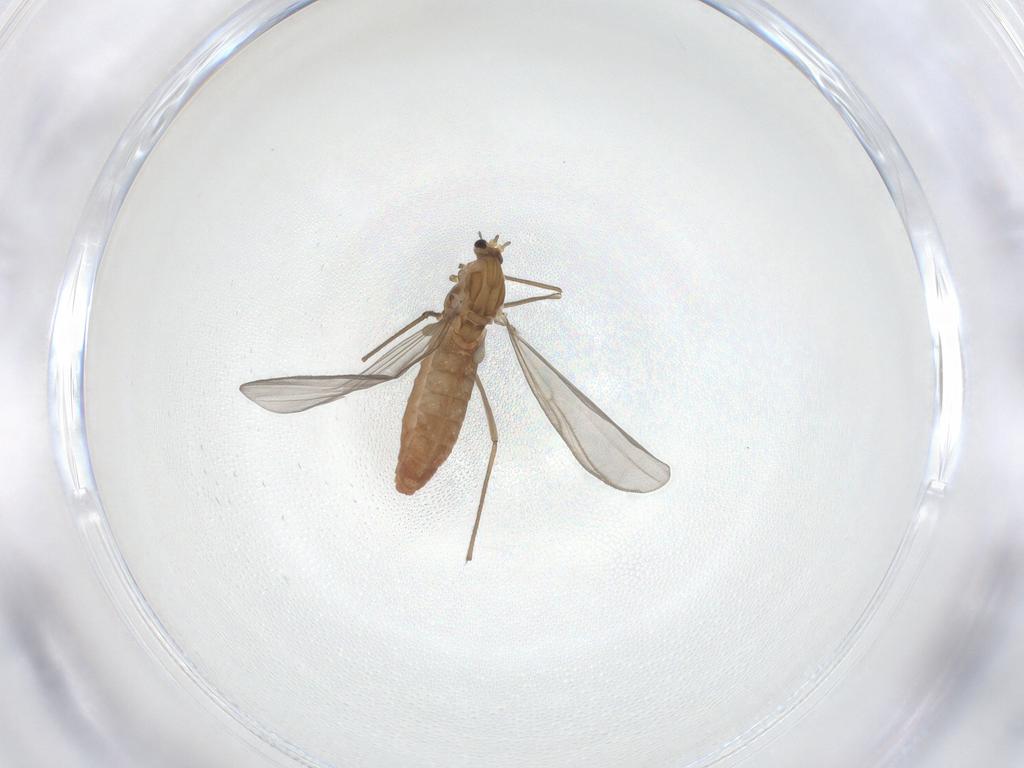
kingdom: Animalia
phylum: Arthropoda
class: Insecta
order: Diptera
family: Chironomidae
